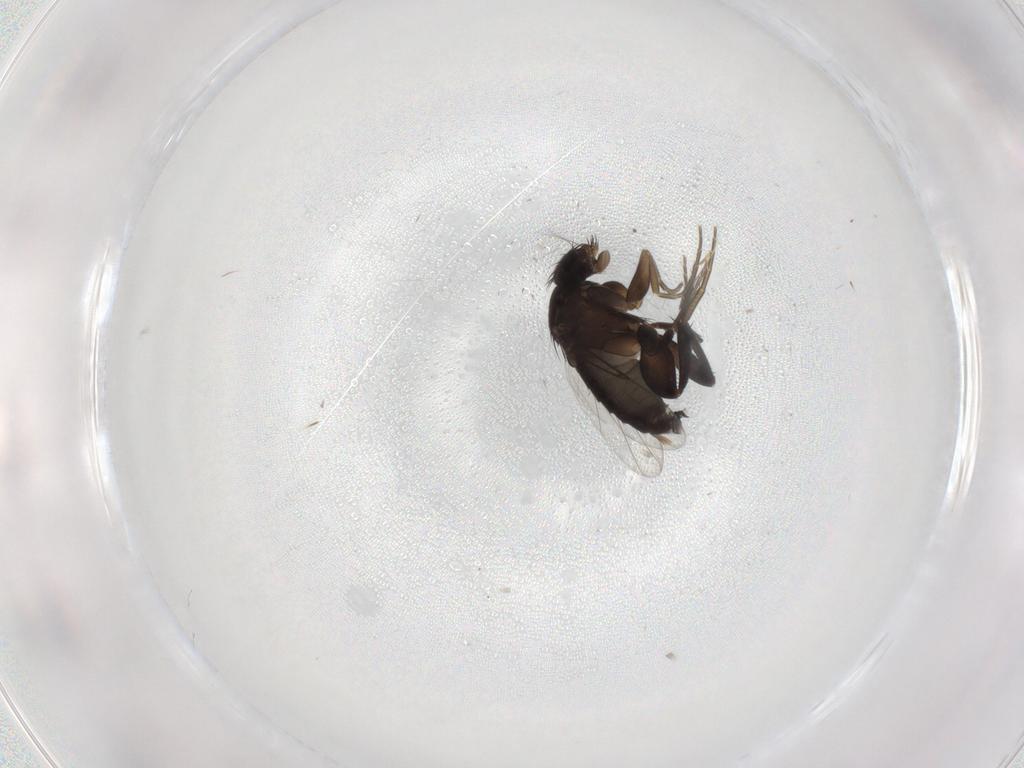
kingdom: Animalia
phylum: Arthropoda
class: Insecta
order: Diptera
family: Phoridae
